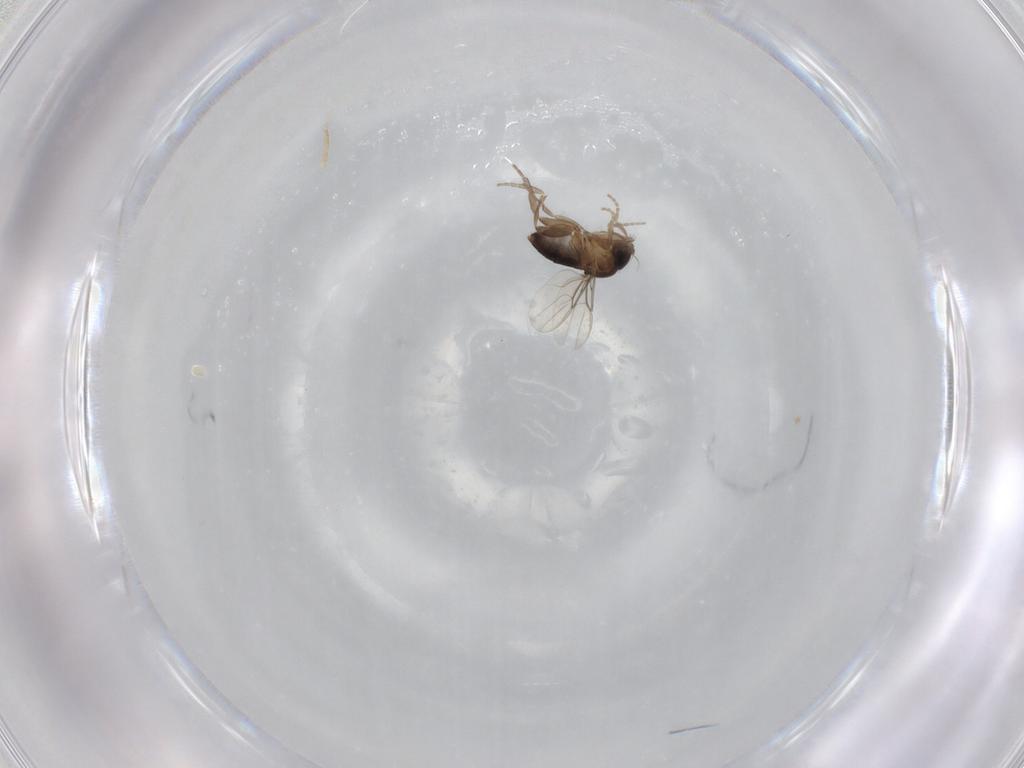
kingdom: Animalia
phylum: Arthropoda
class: Insecta
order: Diptera
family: Phoridae
